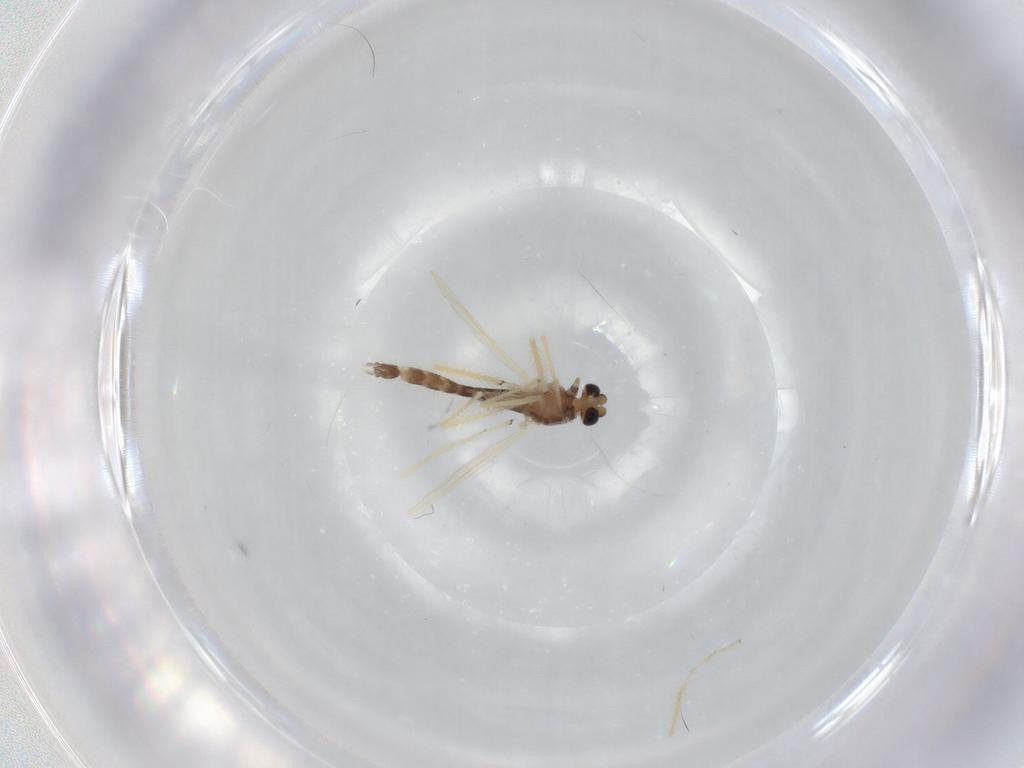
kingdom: Animalia
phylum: Arthropoda
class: Insecta
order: Diptera
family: Chironomidae
